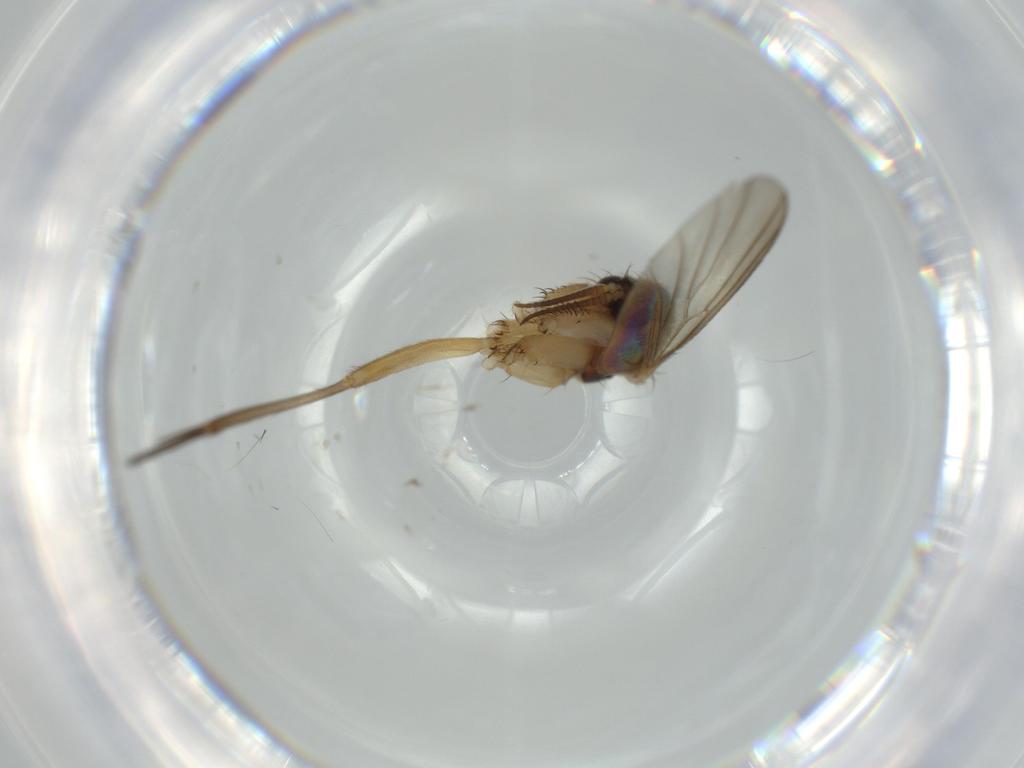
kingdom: Animalia
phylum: Arthropoda
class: Insecta
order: Diptera
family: Mycetophilidae
